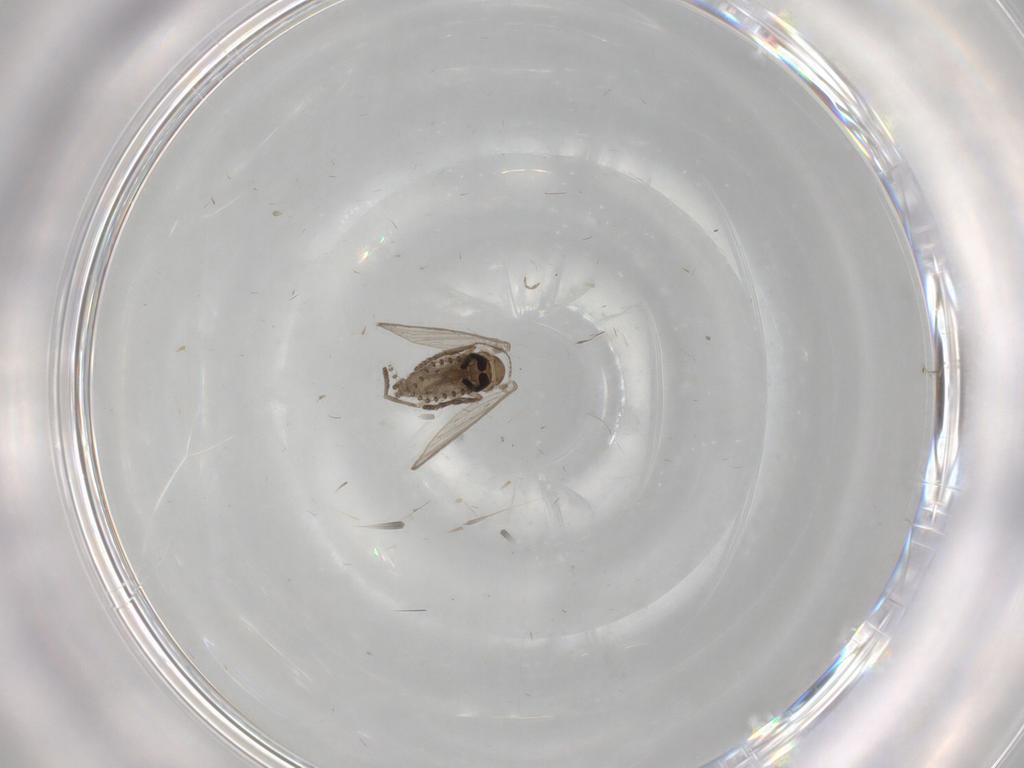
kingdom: Animalia
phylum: Arthropoda
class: Insecta
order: Diptera
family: Psychodidae
